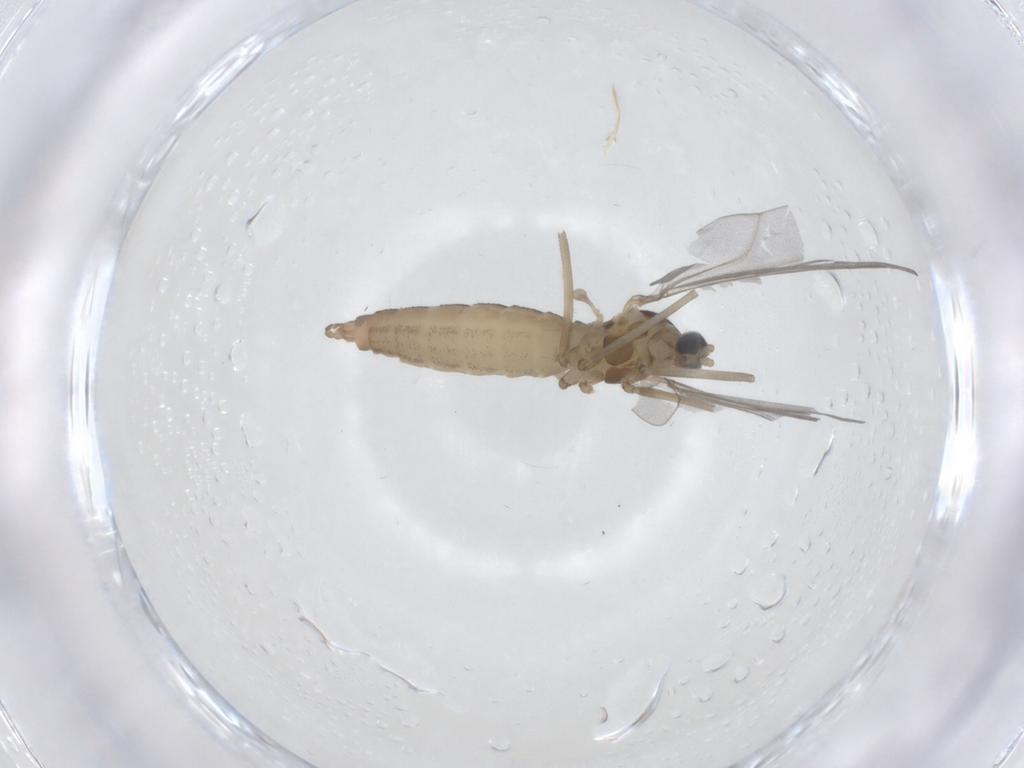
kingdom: Animalia
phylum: Arthropoda
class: Insecta
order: Diptera
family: Cecidomyiidae
